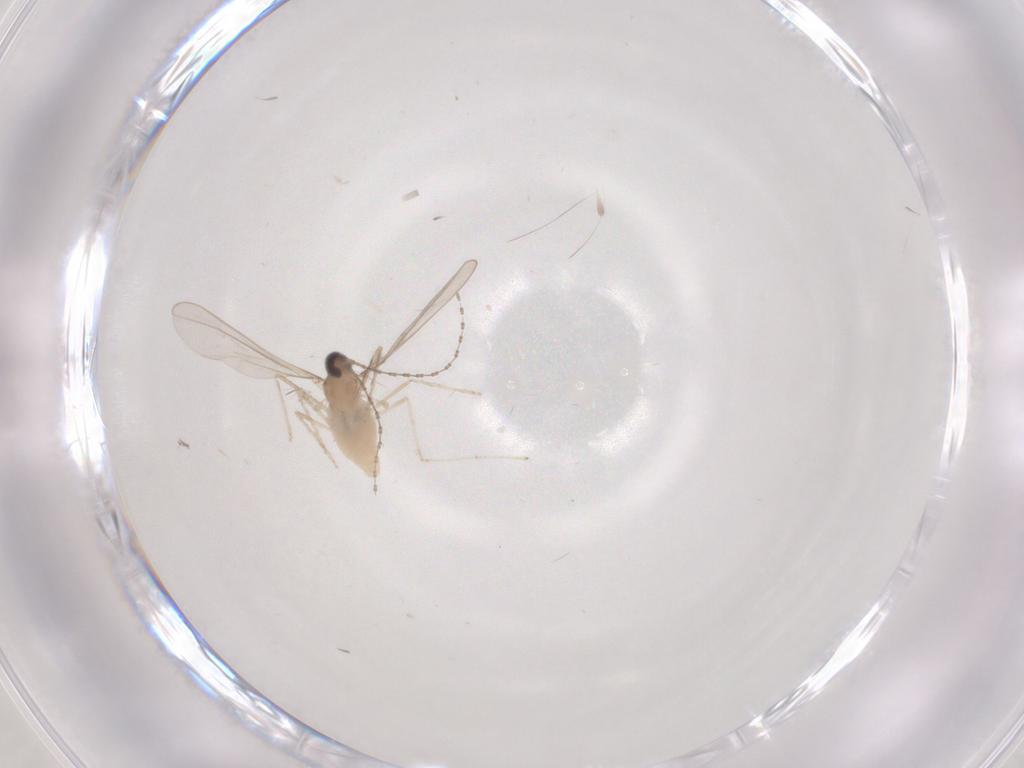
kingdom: Animalia
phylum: Arthropoda
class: Insecta
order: Diptera
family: Cecidomyiidae
